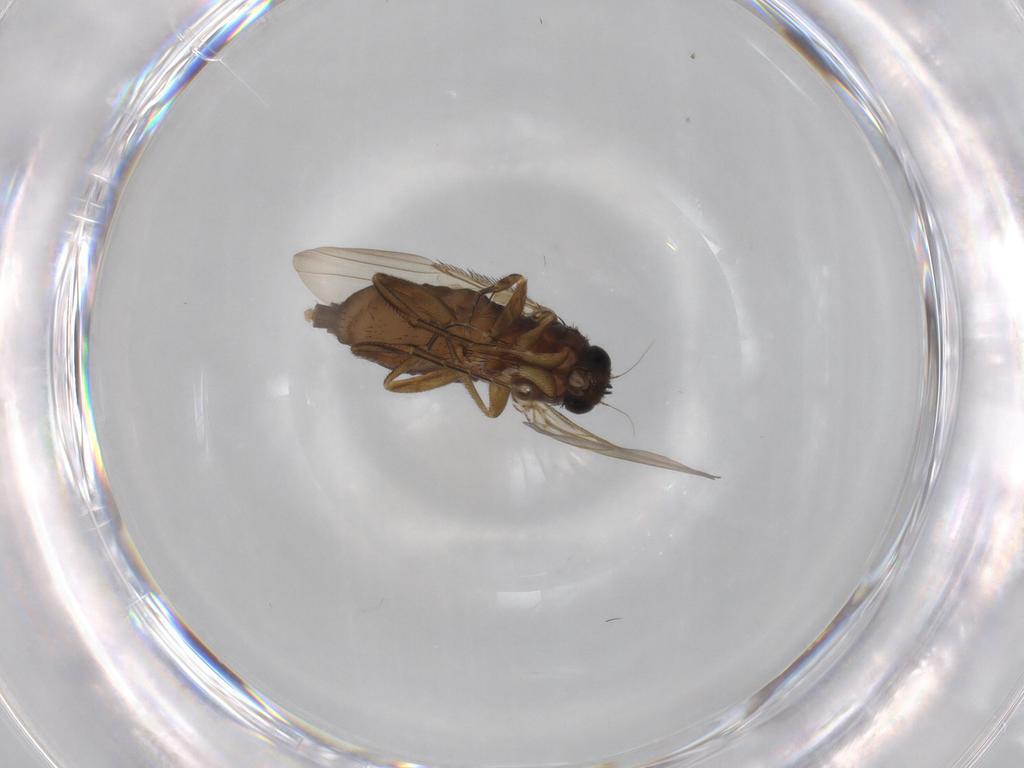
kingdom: Animalia
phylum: Arthropoda
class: Insecta
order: Diptera
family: Phoridae
